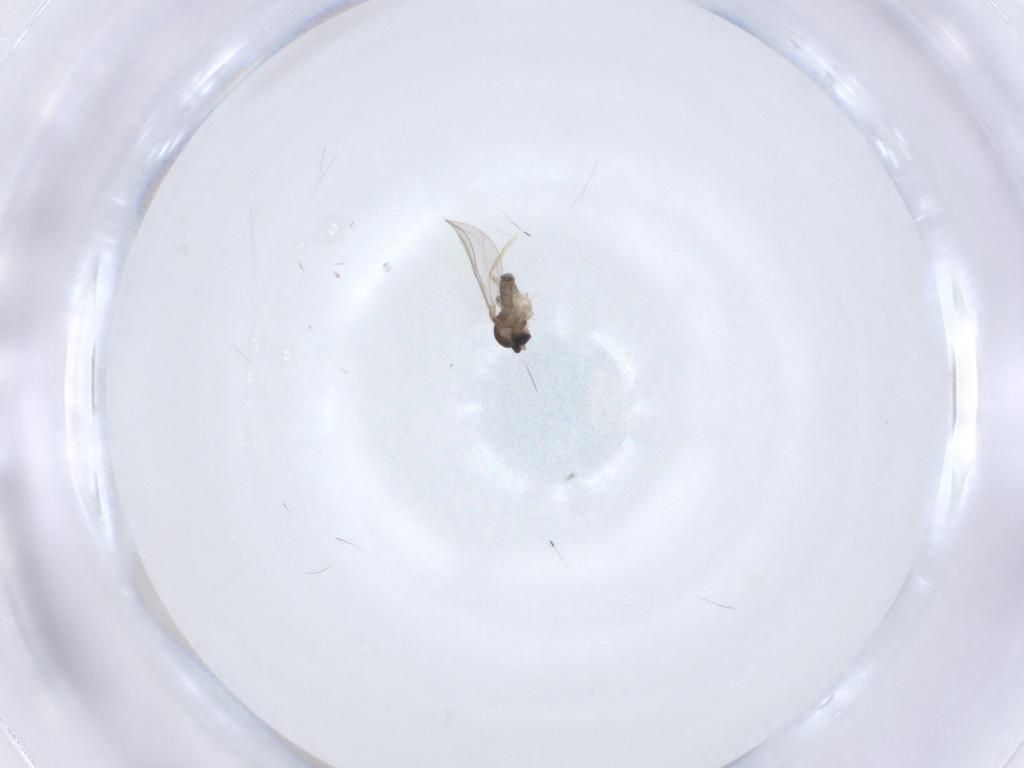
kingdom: Animalia
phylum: Arthropoda
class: Insecta
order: Diptera
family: Cecidomyiidae
